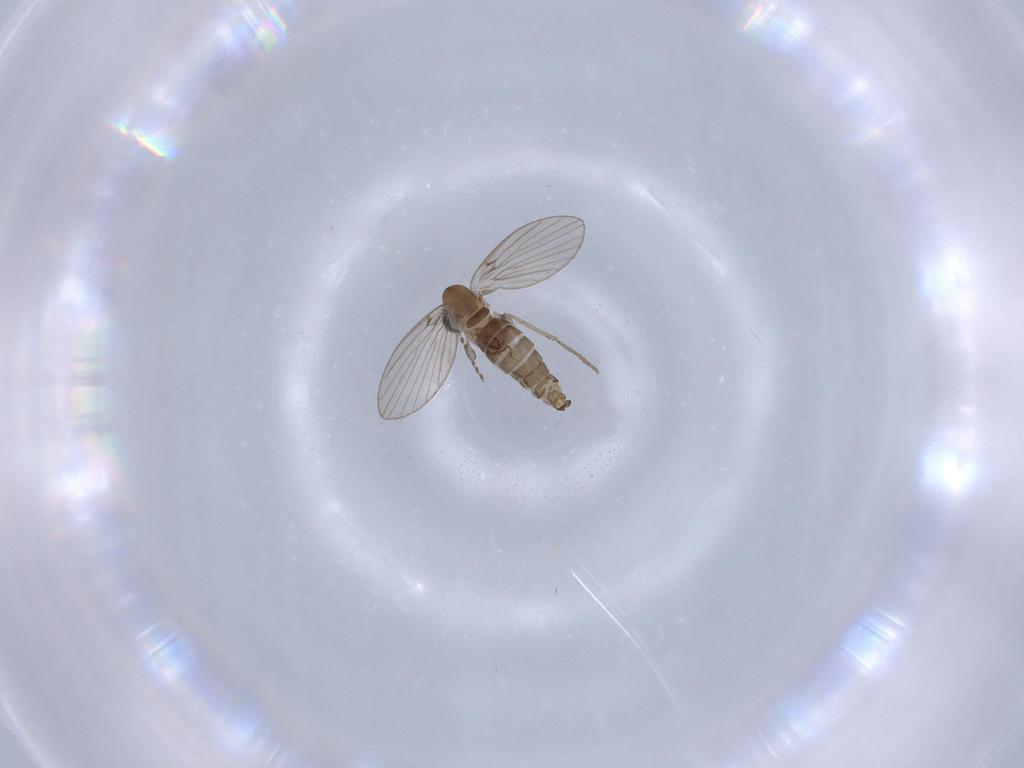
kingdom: Animalia
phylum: Arthropoda
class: Insecta
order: Diptera
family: Psychodidae
